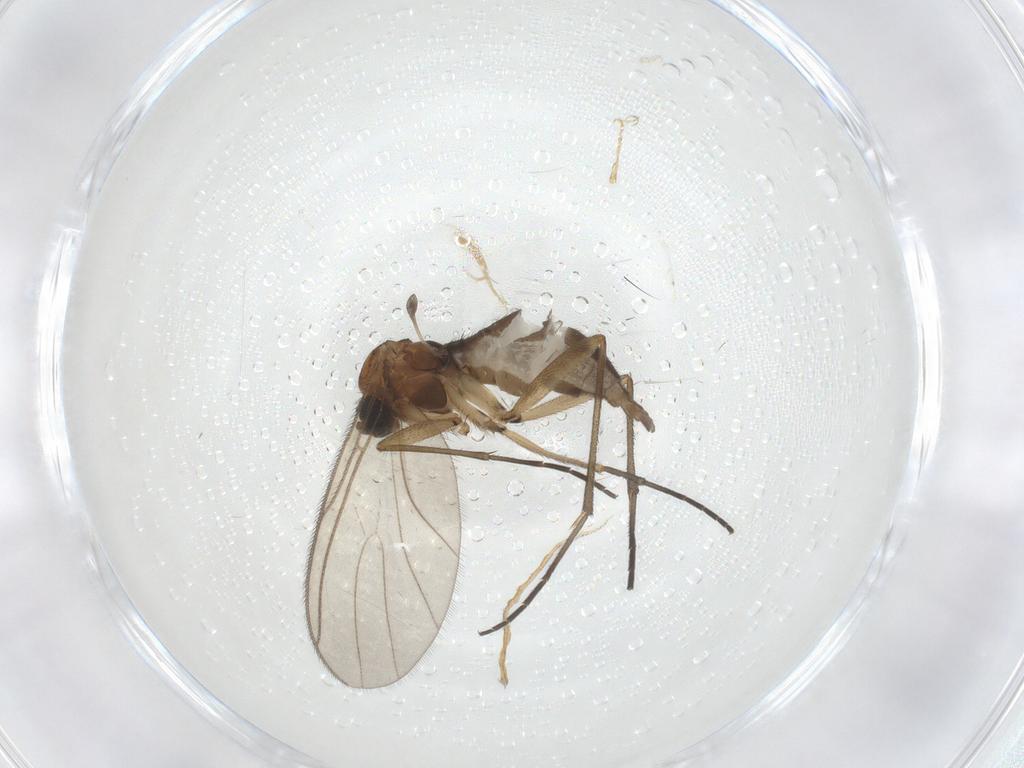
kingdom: Animalia
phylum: Arthropoda
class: Insecta
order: Diptera
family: Sciaridae
